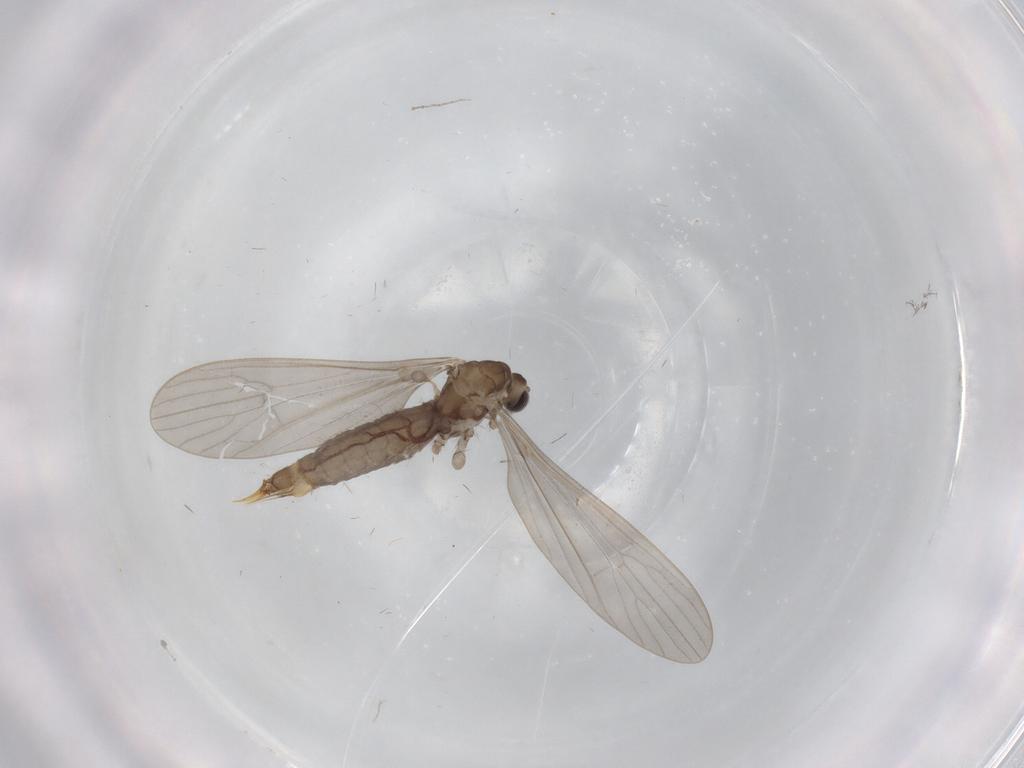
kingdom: Animalia
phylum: Arthropoda
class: Insecta
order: Diptera
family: Limoniidae
